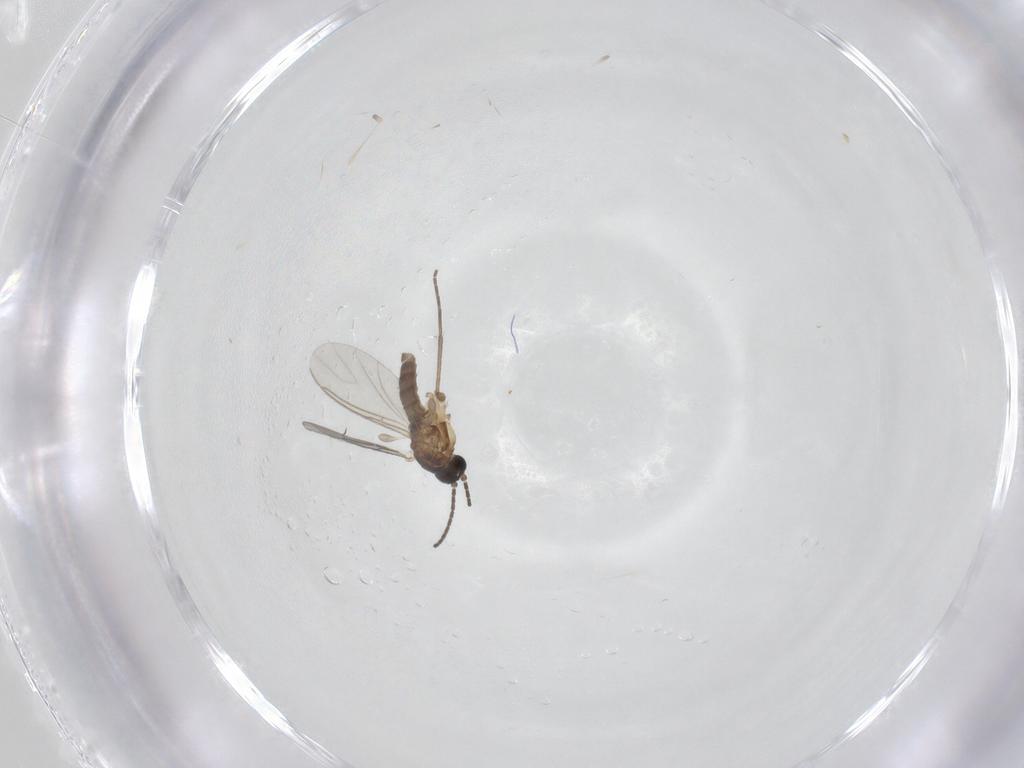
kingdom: Animalia
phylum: Arthropoda
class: Insecta
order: Diptera
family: Sciaridae
